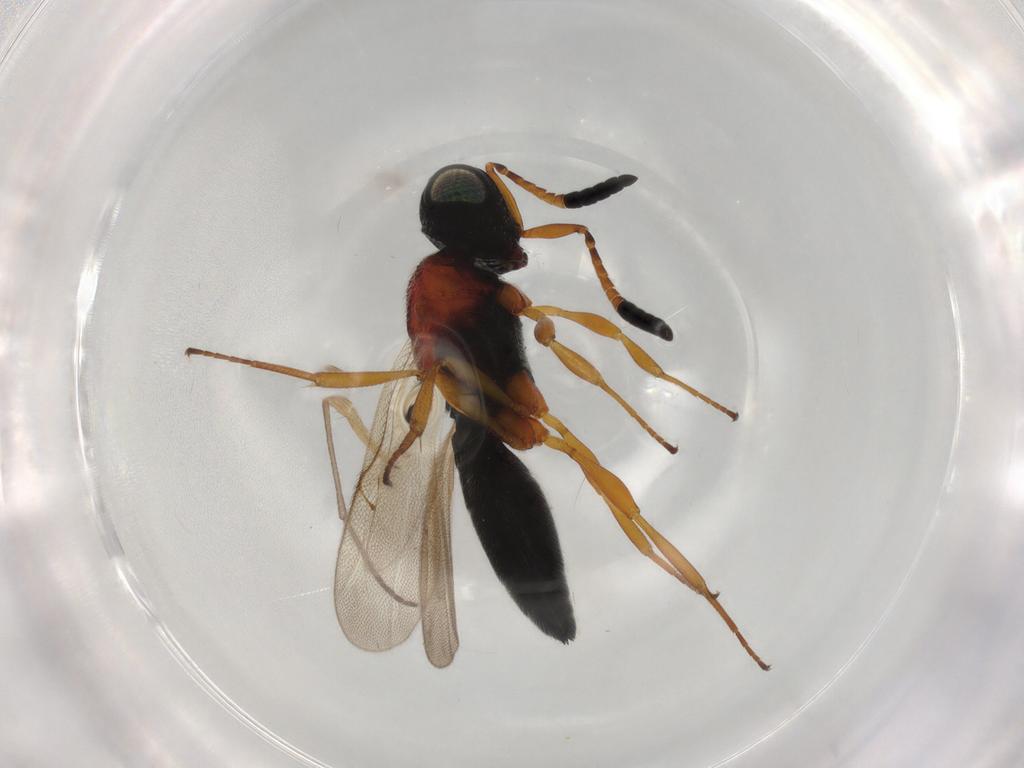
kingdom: Animalia
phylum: Arthropoda
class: Insecta
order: Hymenoptera
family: Scelionidae
